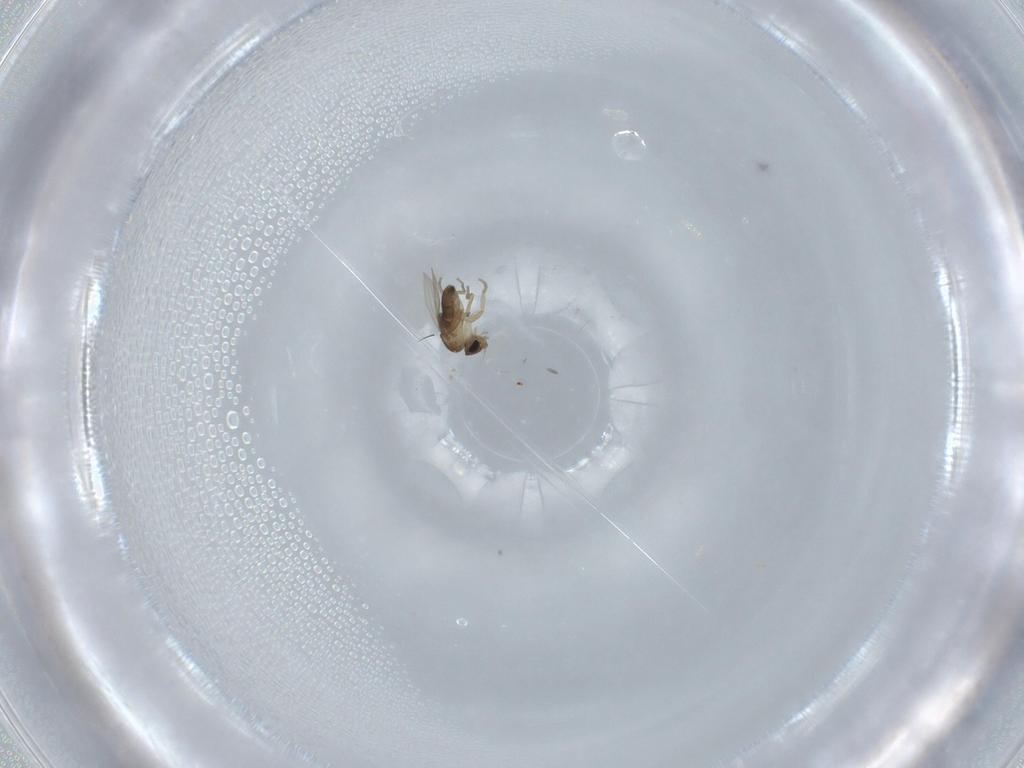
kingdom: Animalia
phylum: Arthropoda
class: Insecta
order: Diptera
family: Phoridae
